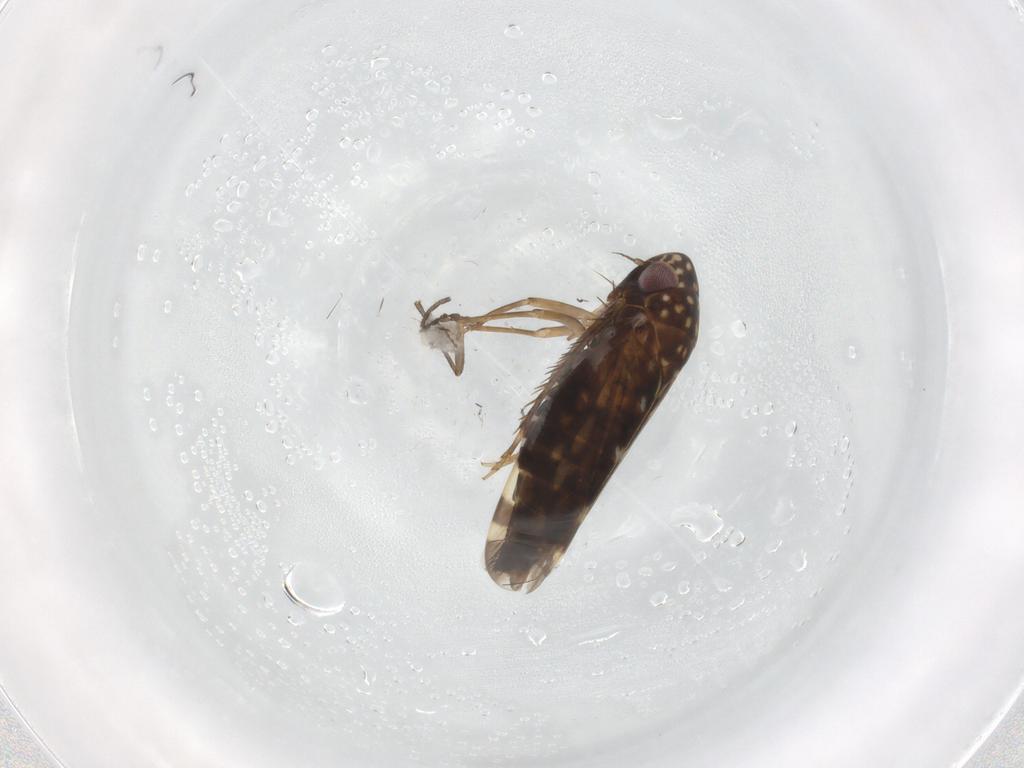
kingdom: Animalia
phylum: Arthropoda
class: Insecta
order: Hemiptera
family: Cicadellidae
